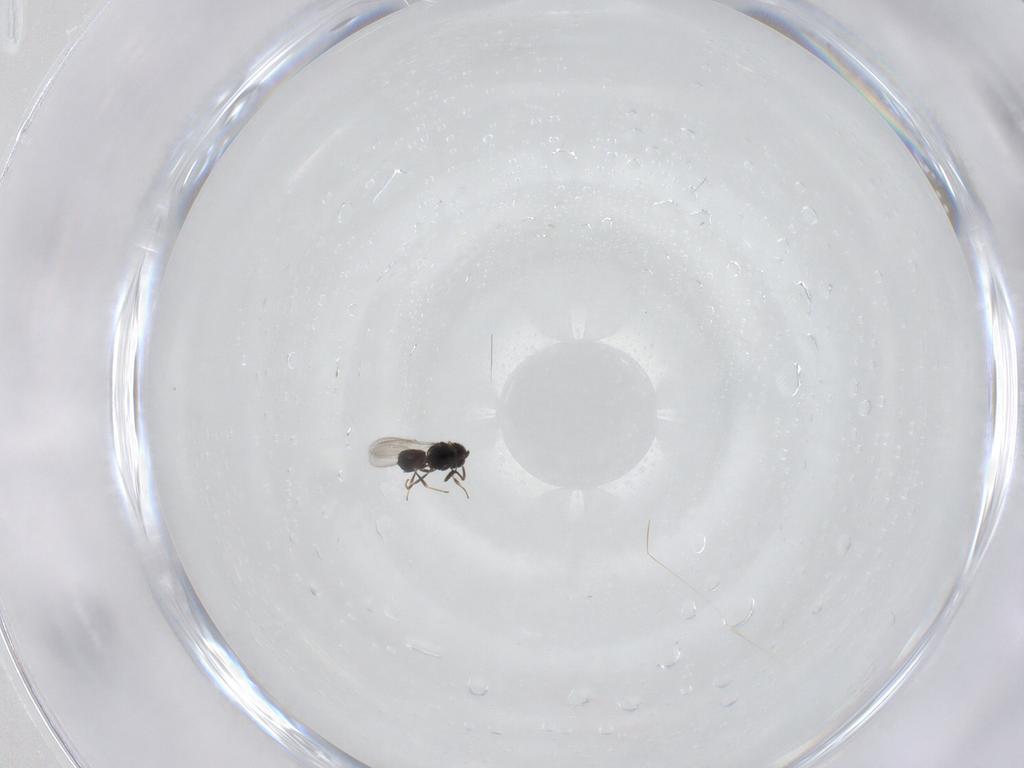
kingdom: Animalia
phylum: Arthropoda
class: Insecta
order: Hymenoptera
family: Scelionidae
